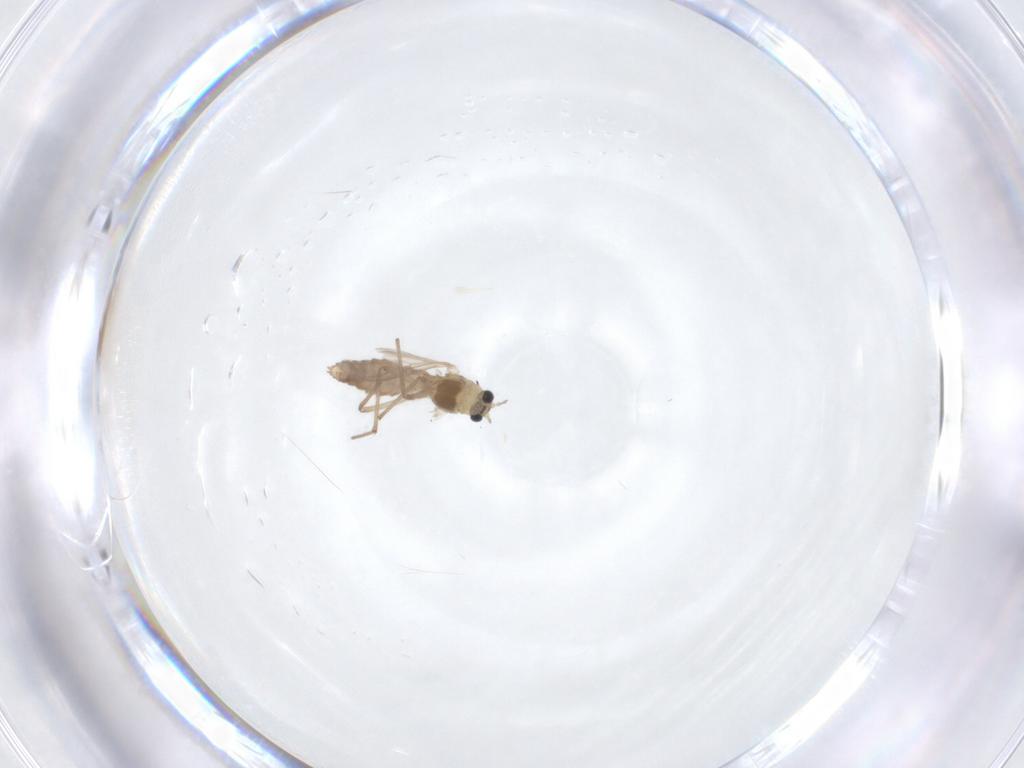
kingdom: Animalia
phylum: Arthropoda
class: Insecta
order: Diptera
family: Chironomidae
